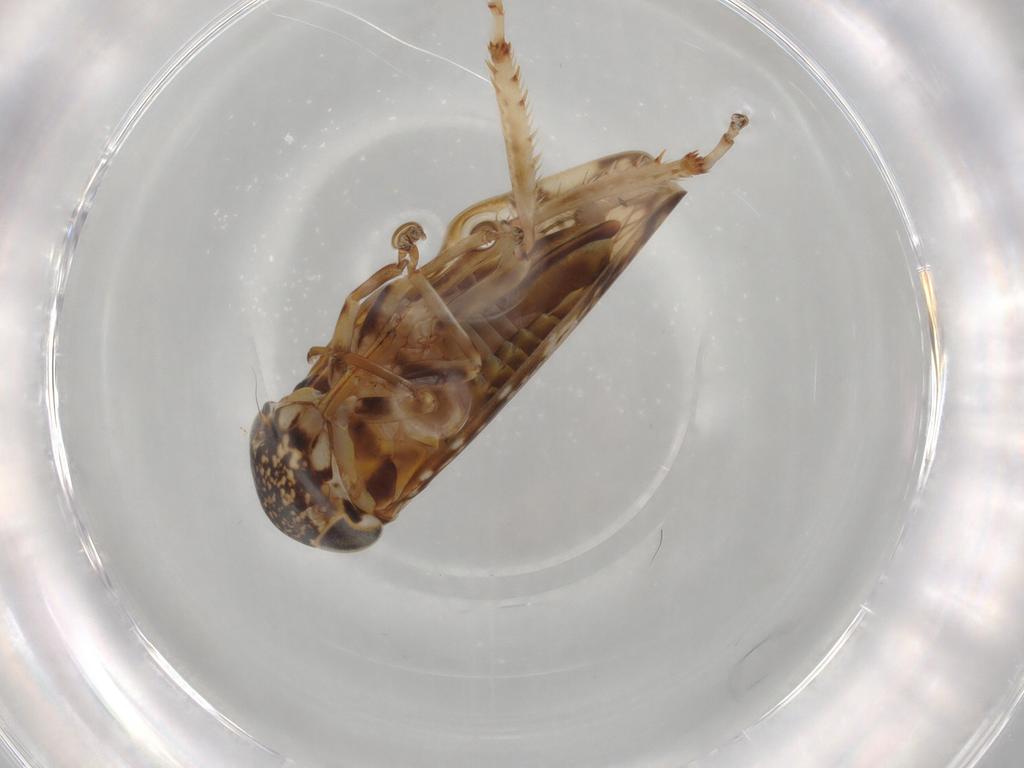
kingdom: Animalia
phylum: Arthropoda
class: Insecta
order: Hemiptera
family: Cicadellidae
